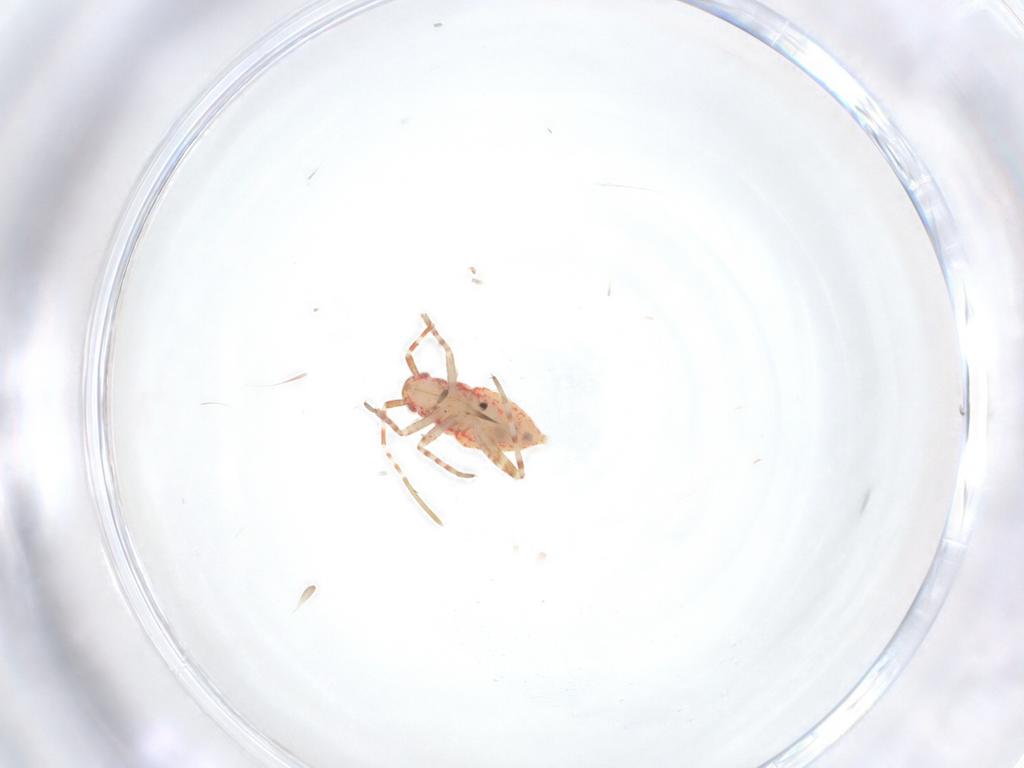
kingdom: Animalia
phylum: Arthropoda
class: Insecta
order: Hemiptera
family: Miridae
